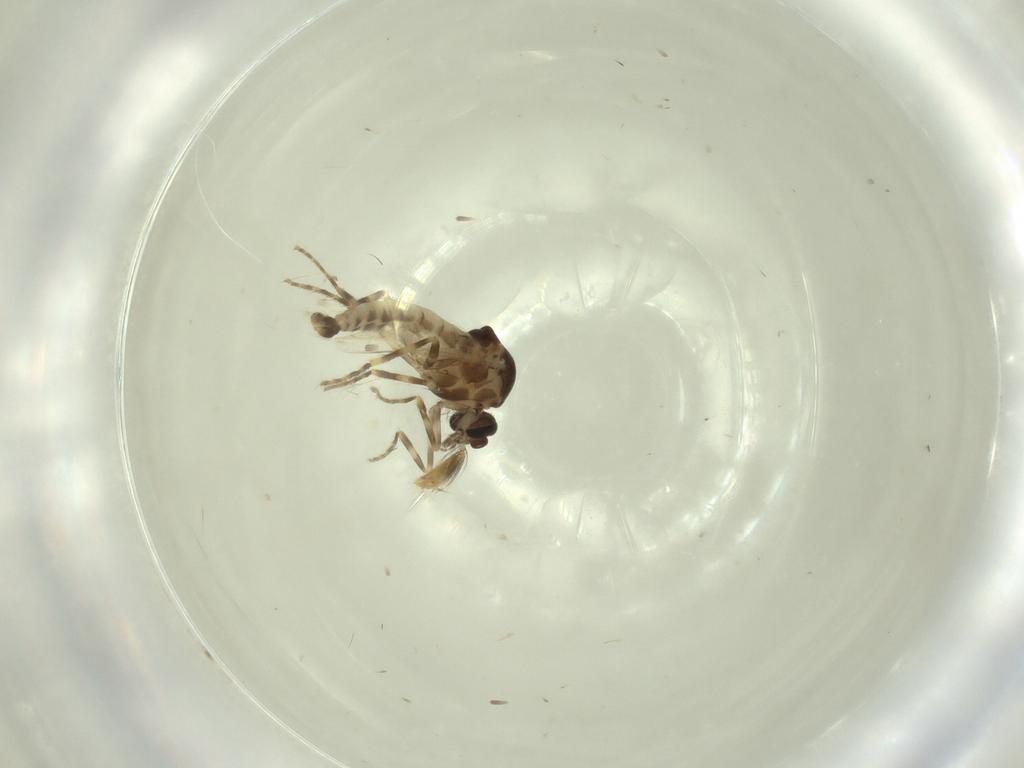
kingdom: Animalia
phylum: Arthropoda
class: Insecta
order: Diptera
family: Ceratopogonidae
